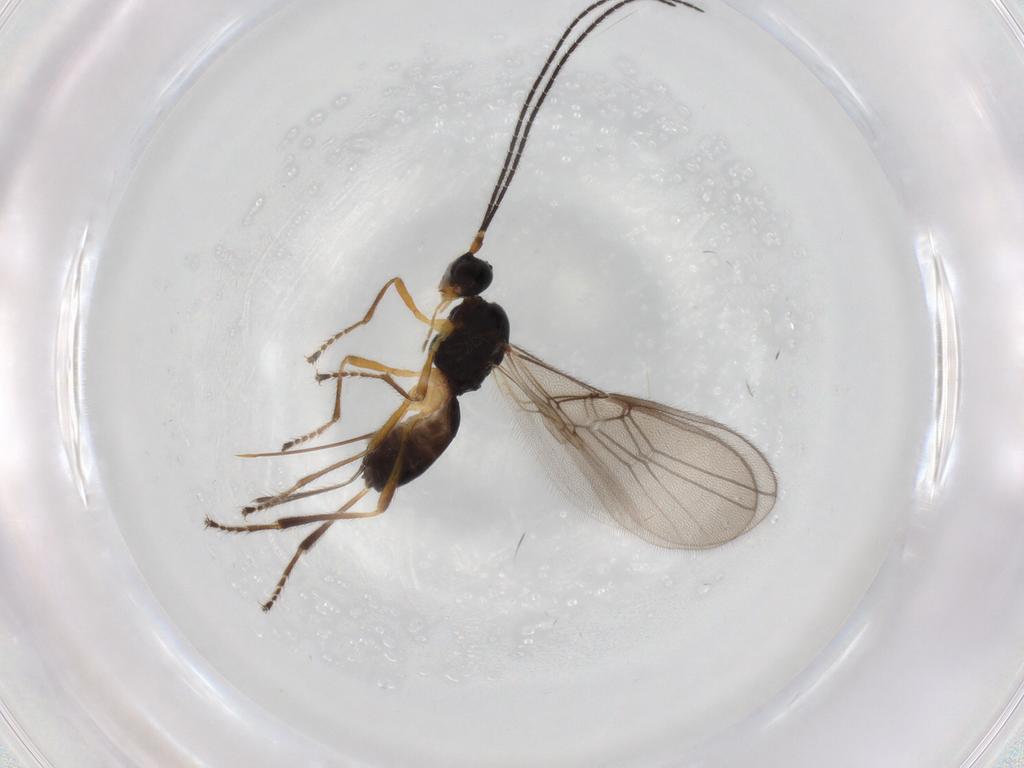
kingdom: Animalia
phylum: Arthropoda
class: Insecta
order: Hymenoptera
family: Braconidae
